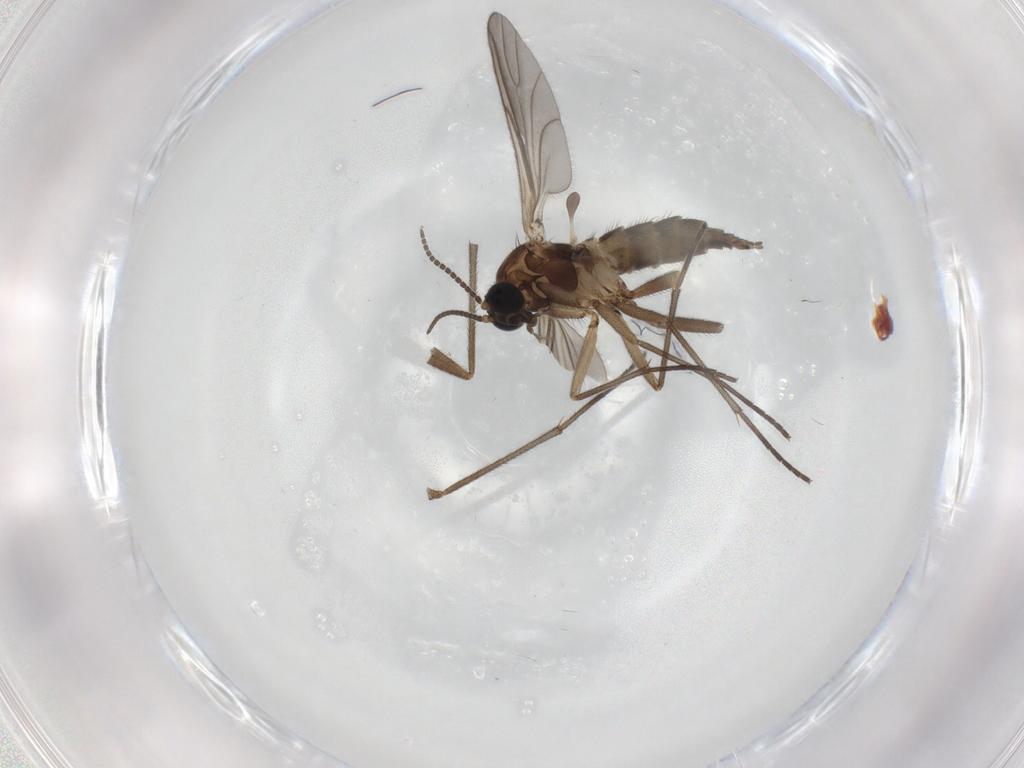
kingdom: Animalia
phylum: Arthropoda
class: Insecta
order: Diptera
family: Sciaridae
